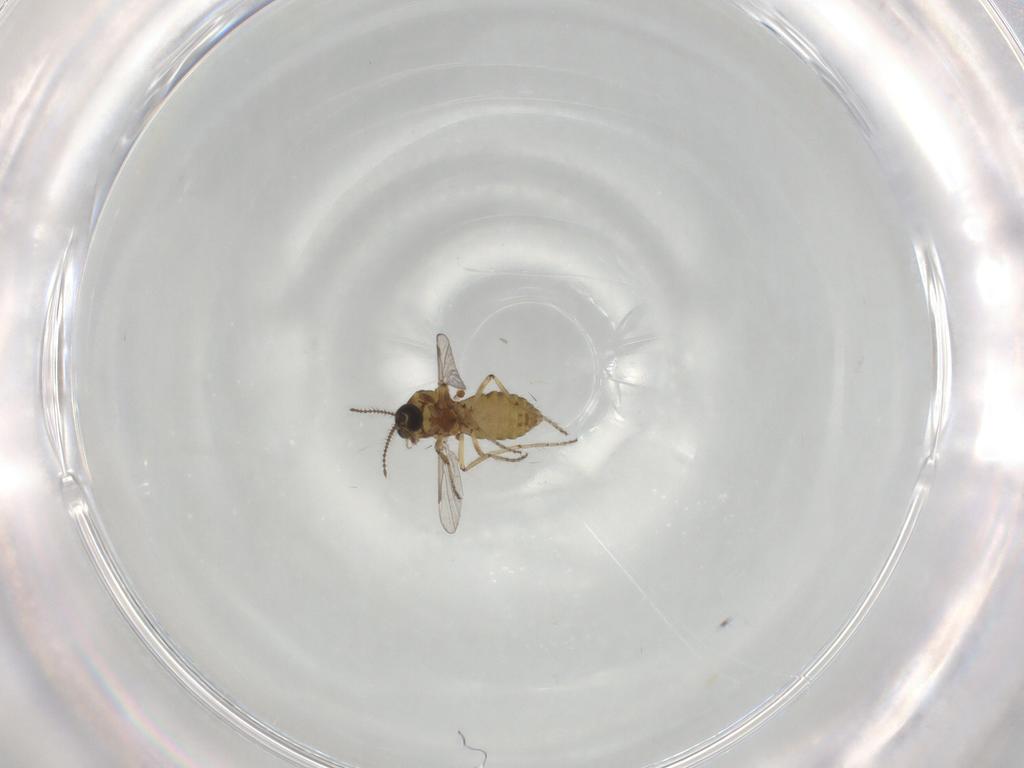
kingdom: Animalia
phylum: Arthropoda
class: Insecta
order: Diptera
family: Ceratopogonidae
